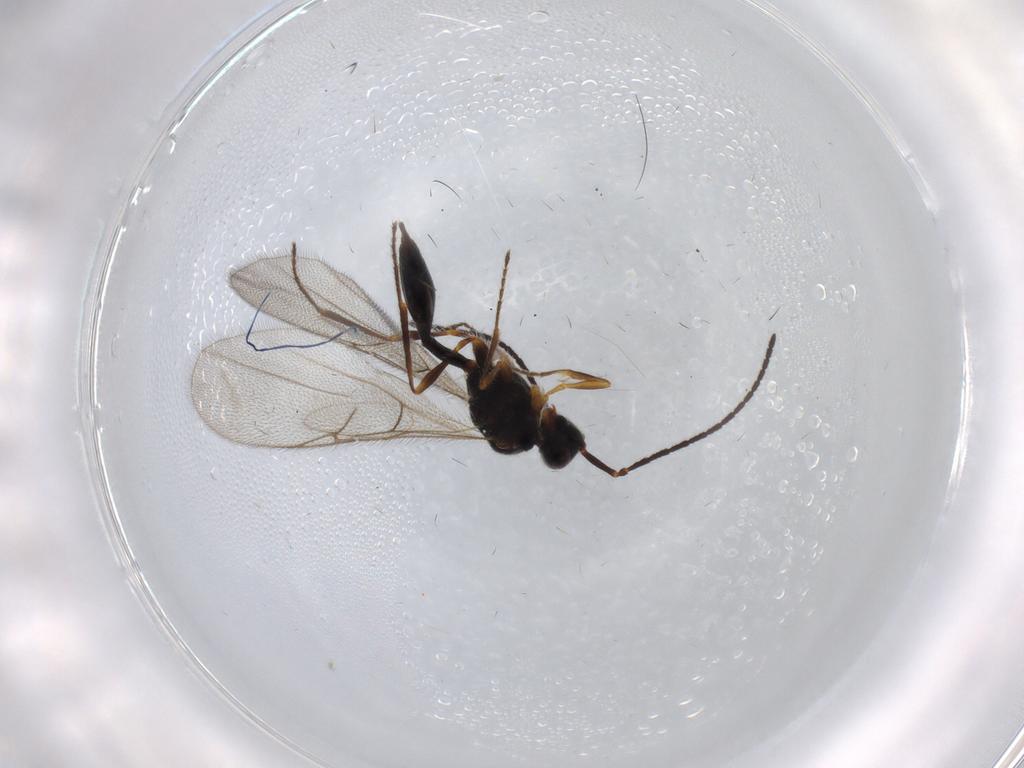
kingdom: Animalia
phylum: Arthropoda
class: Insecta
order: Hymenoptera
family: Diapriidae
